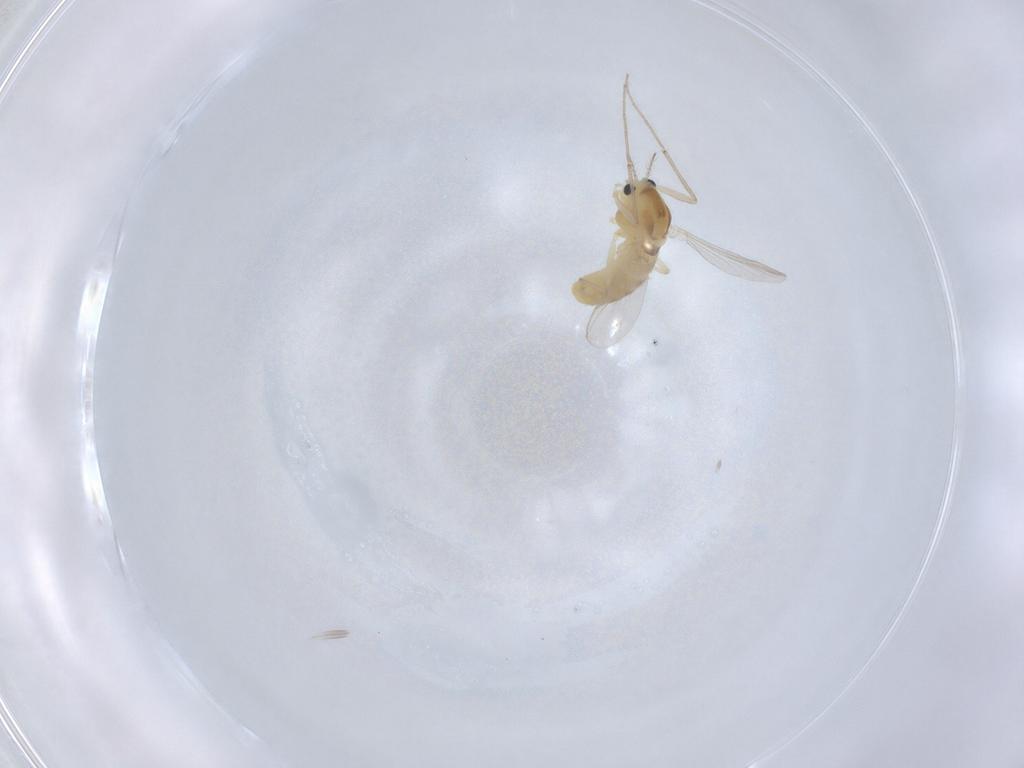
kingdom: Animalia
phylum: Arthropoda
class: Insecta
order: Diptera
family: Chironomidae
